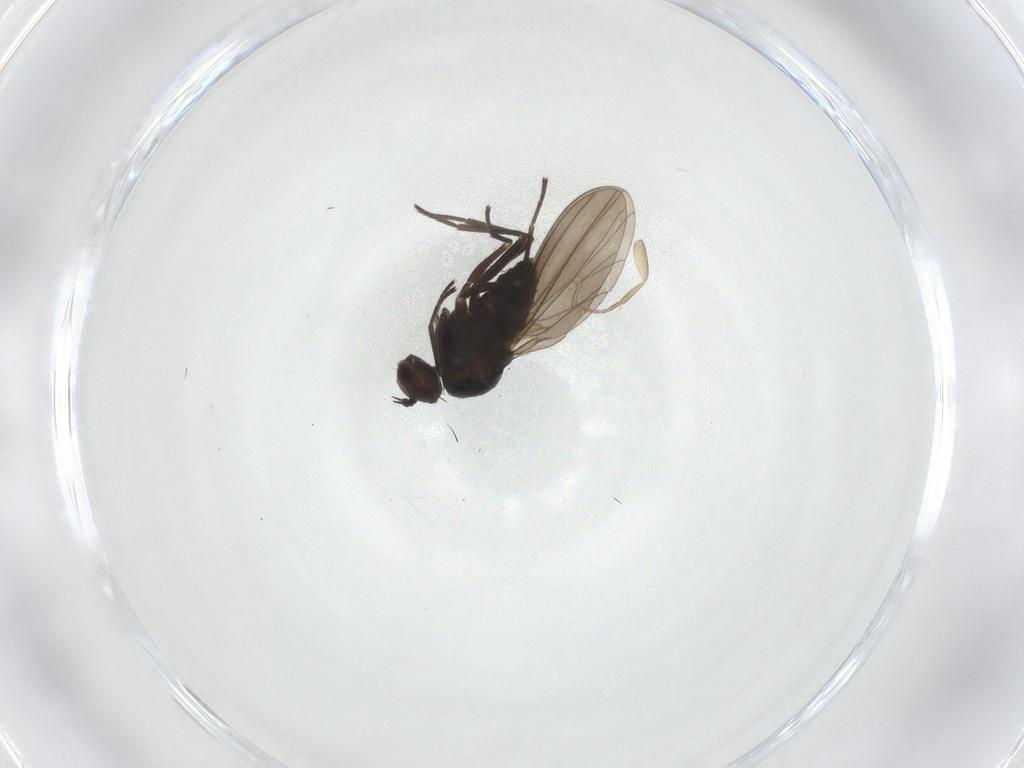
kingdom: Animalia
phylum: Arthropoda
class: Insecta
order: Diptera
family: Dolichopodidae
